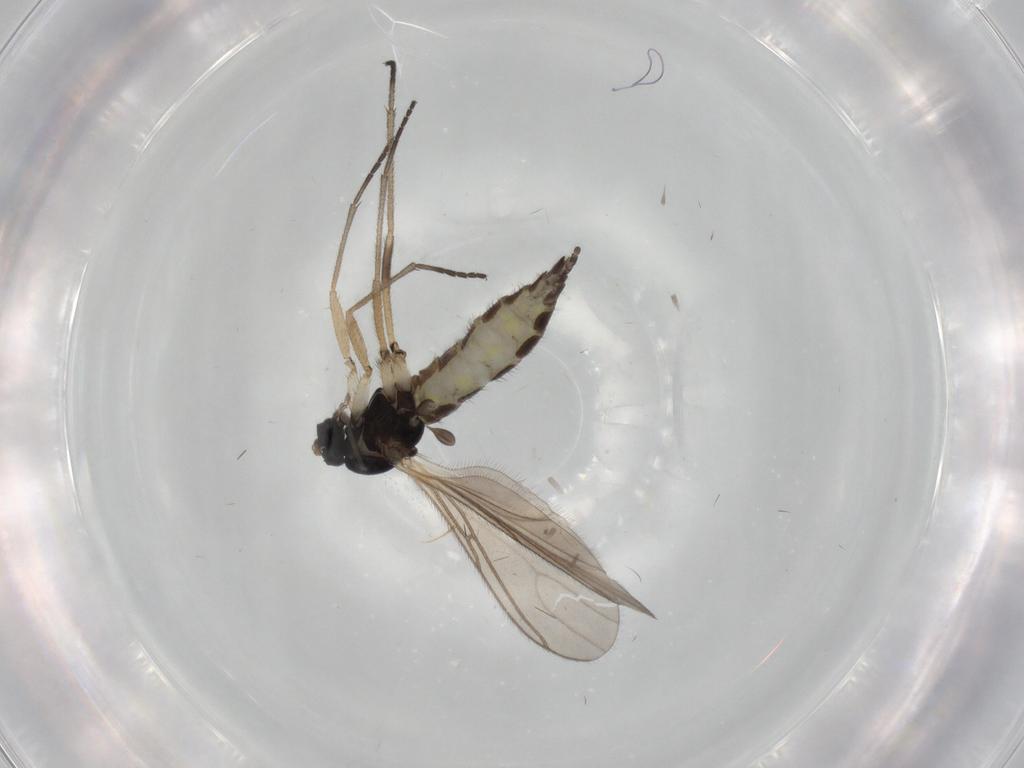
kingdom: Animalia
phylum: Arthropoda
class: Insecta
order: Diptera
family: Sciaridae
